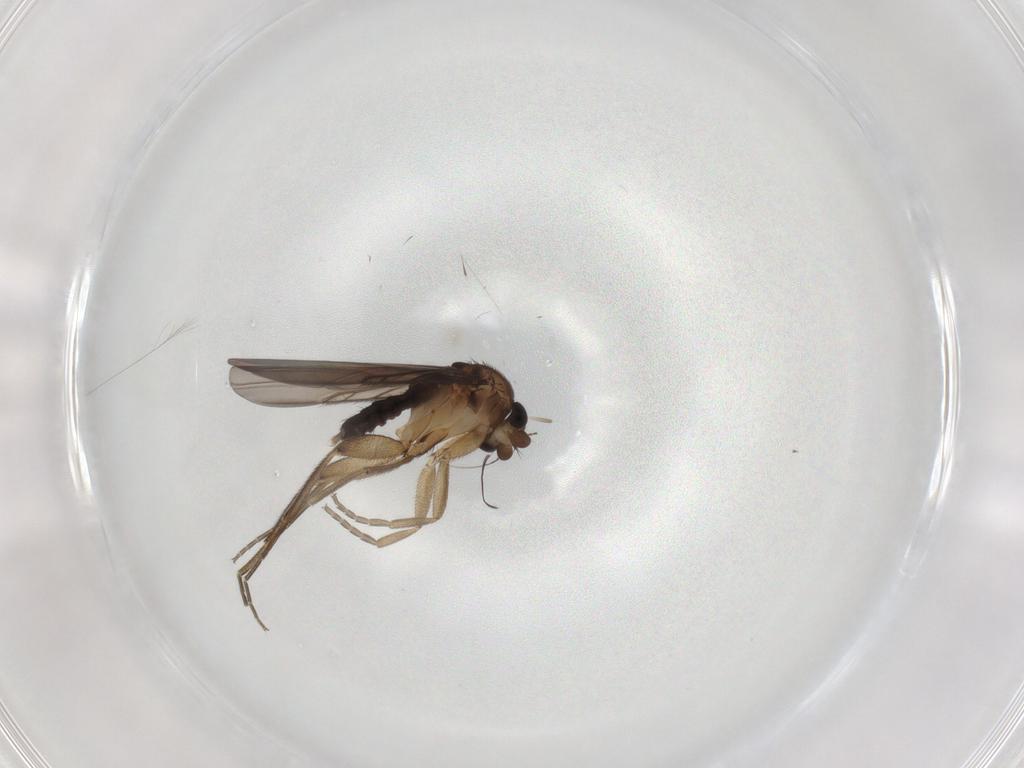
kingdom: Animalia
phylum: Arthropoda
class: Insecta
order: Diptera
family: Phoridae
